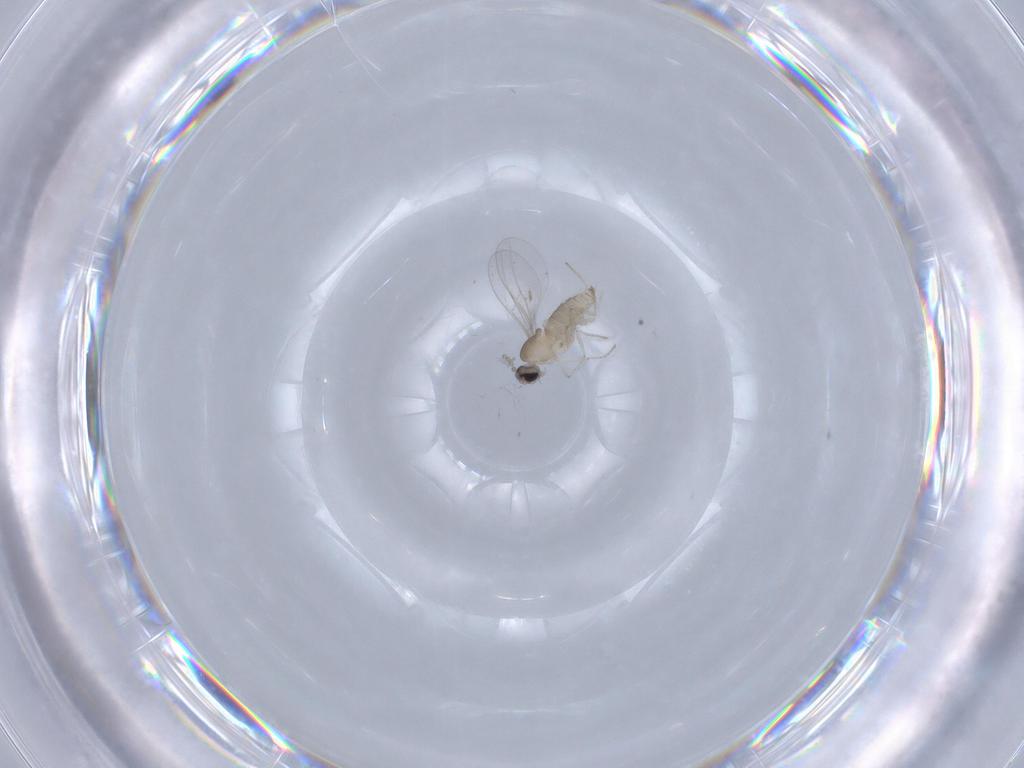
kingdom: Animalia
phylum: Arthropoda
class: Insecta
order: Diptera
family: Cecidomyiidae
